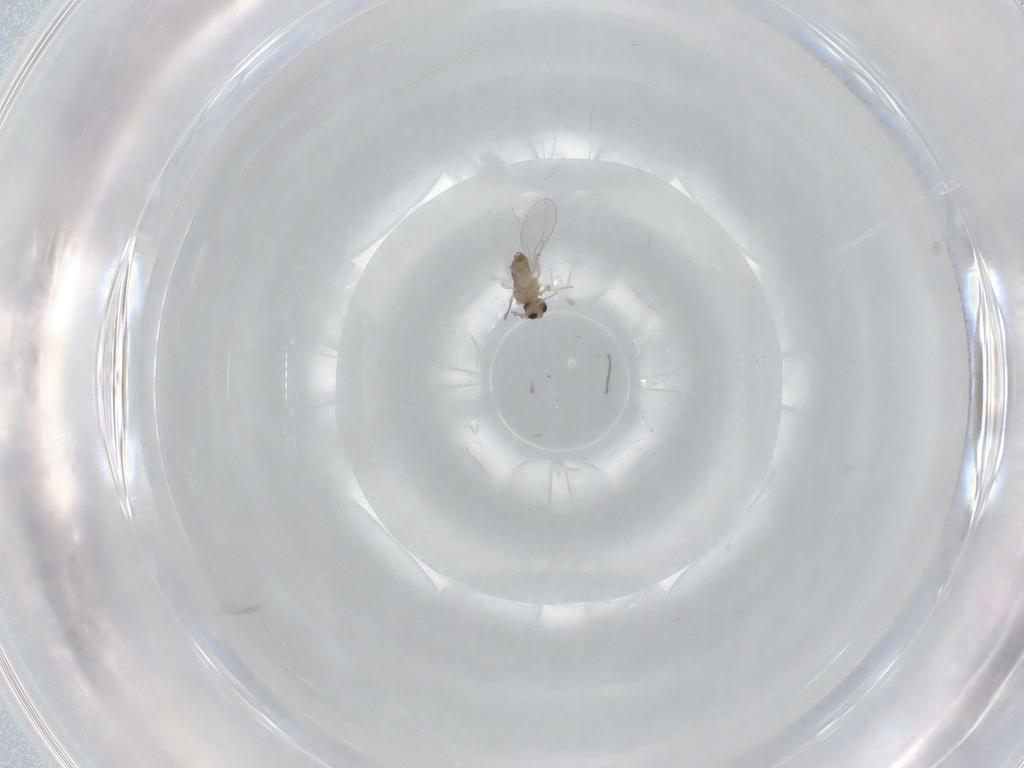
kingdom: Animalia
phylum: Arthropoda
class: Insecta
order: Diptera
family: Cecidomyiidae
